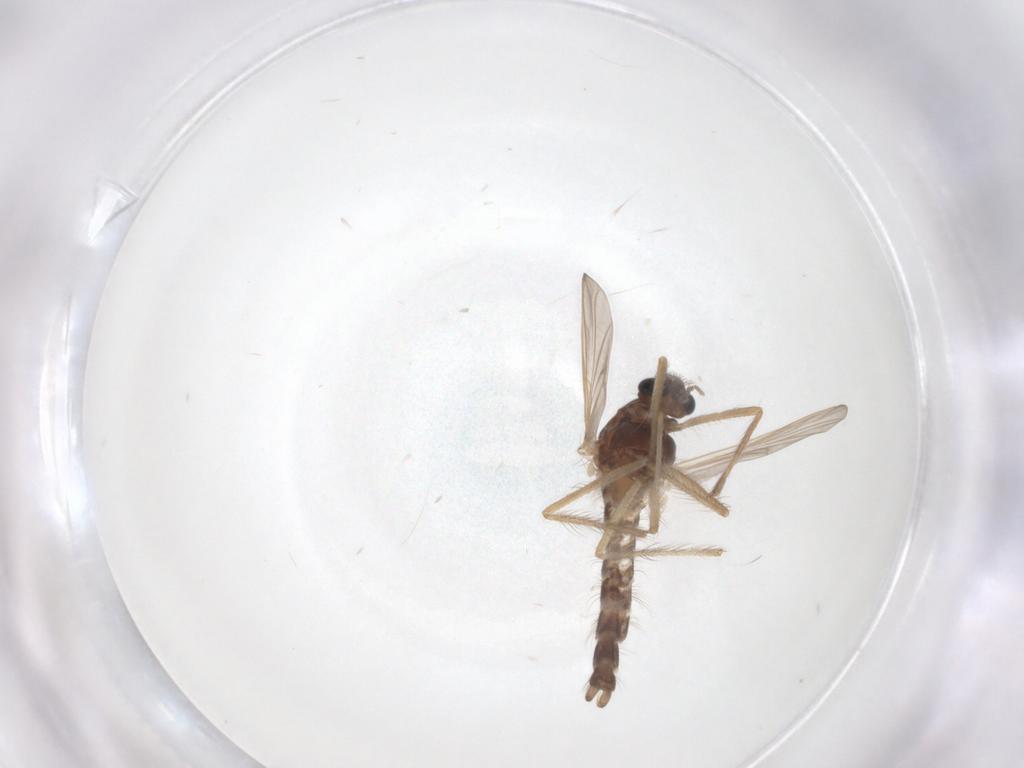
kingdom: Animalia
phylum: Arthropoda
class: Insecta
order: Diptera
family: Chironomidae
